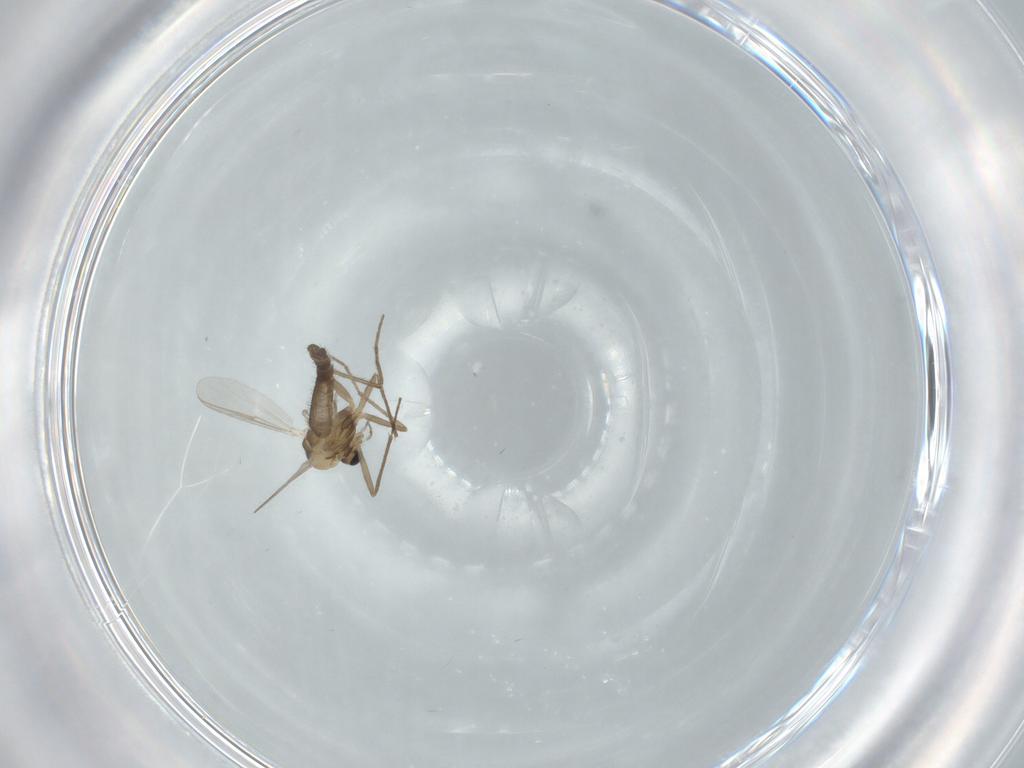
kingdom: Animalia
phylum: Arthropoda
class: Insecta
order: Diptera
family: Chironomidae
